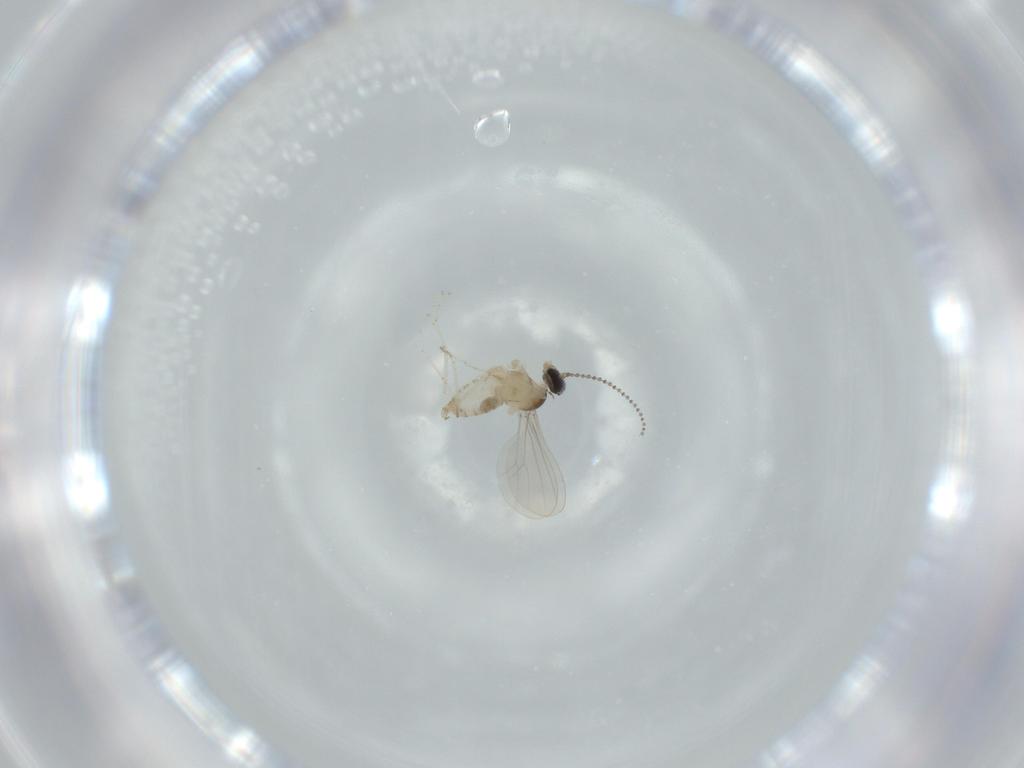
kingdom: Animalia
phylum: Arthropoda
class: Insecta
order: Diptera
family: Cecidomyiidae
